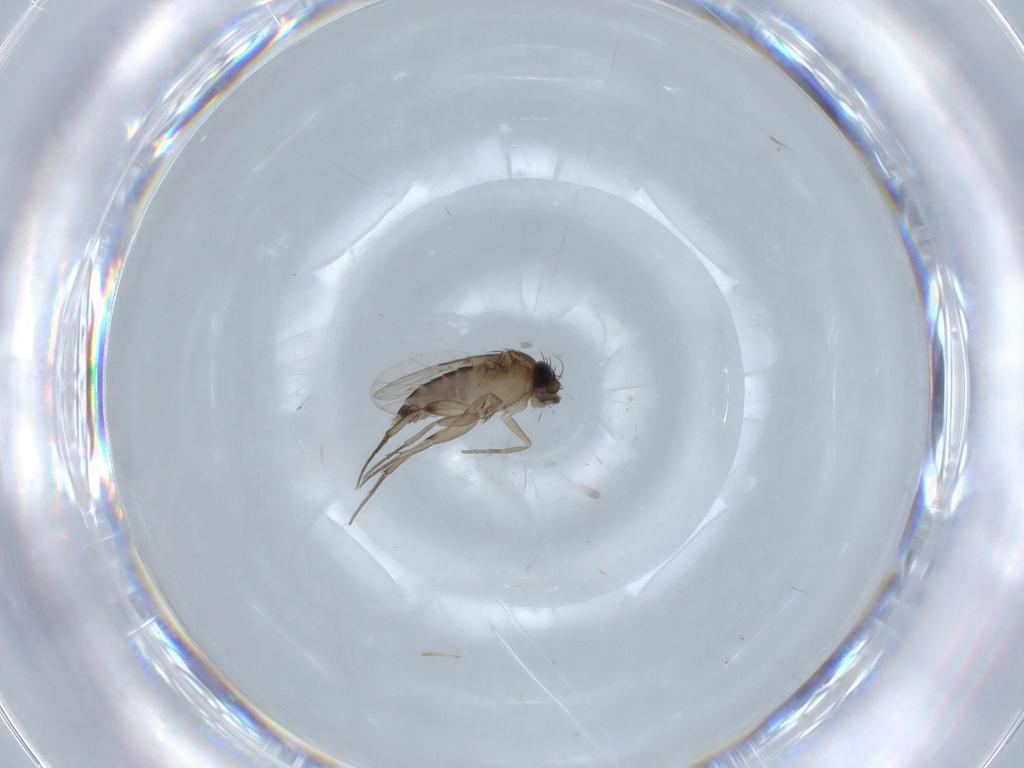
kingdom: Animalia
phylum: Arthropoda
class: Insecta
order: Diptera
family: Phoridae
